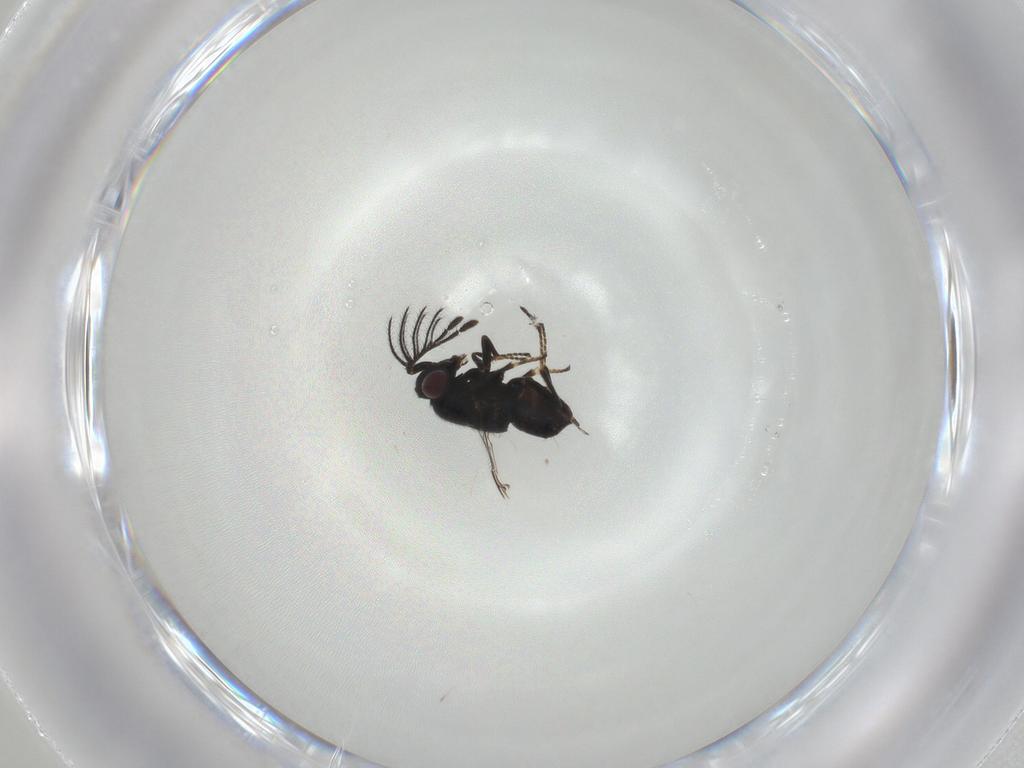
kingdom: Animalia
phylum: Arthropoda
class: Insecta
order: Hymenoptera
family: Encyrtidae
